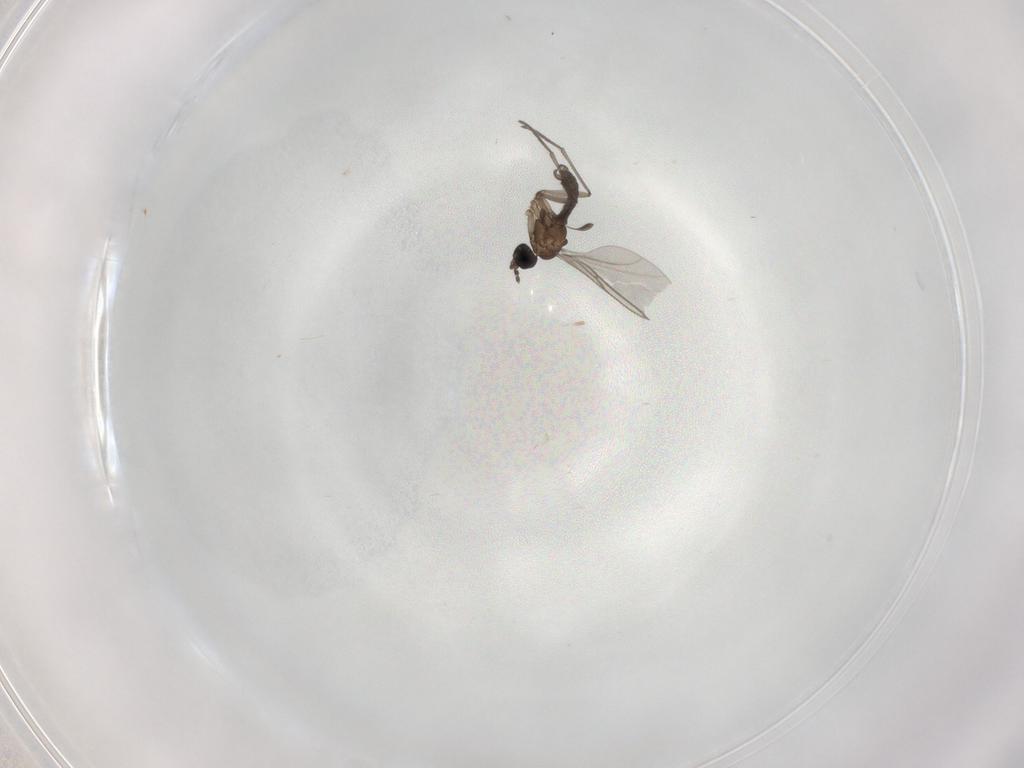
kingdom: Animalia
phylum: Arthropoda
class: Insecta
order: Diptera
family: Sciaridae
